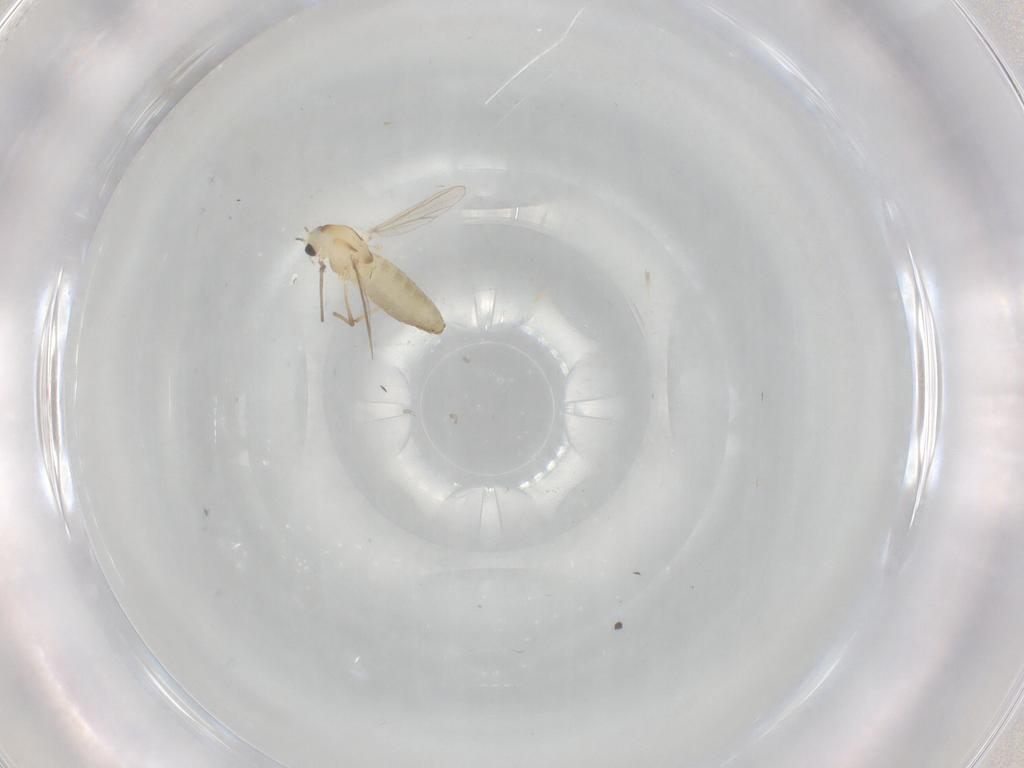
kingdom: Animalia
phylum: Arthropoda
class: Insecta
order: Diptera
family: Chironomidae
